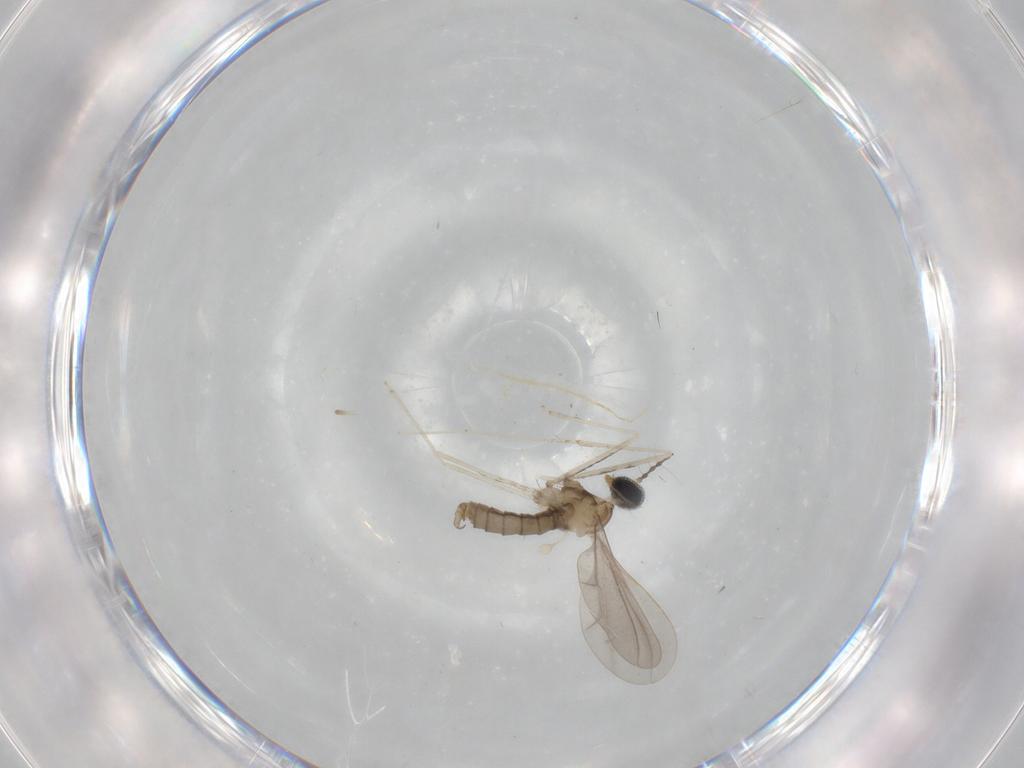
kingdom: Animalia
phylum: Arthropoda
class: Insecta
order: Diptera
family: Cecidomyiidae
